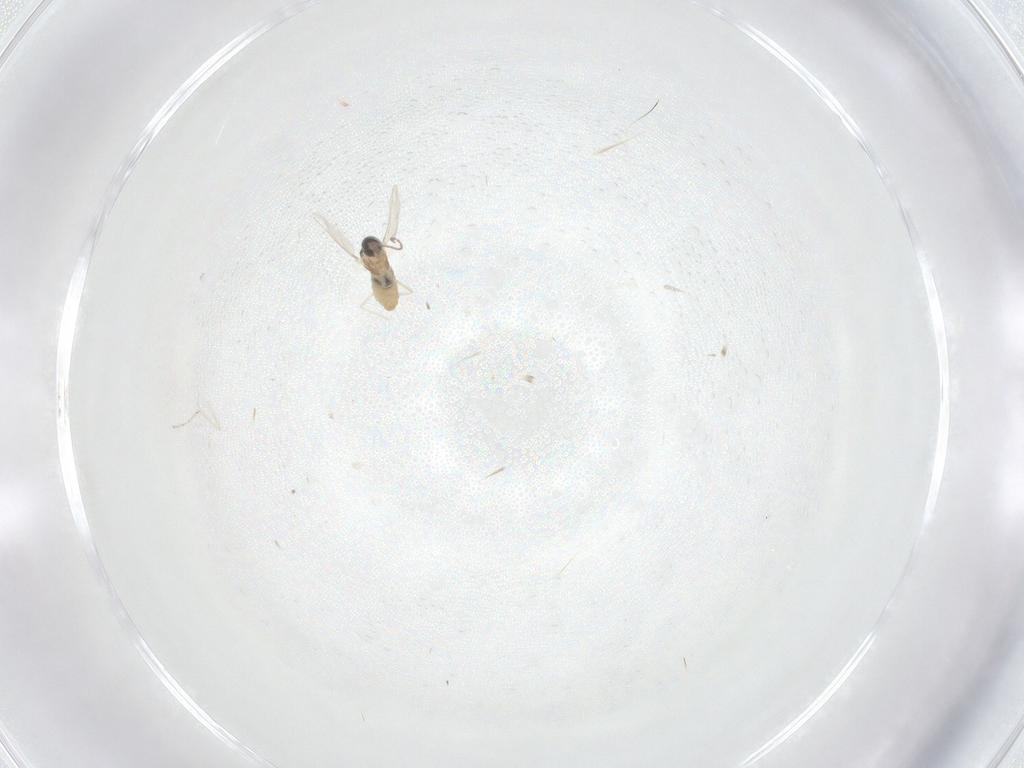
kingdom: Animalia
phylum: Arthropoda
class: Insecta
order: Diptera
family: Cecidomyiidae
